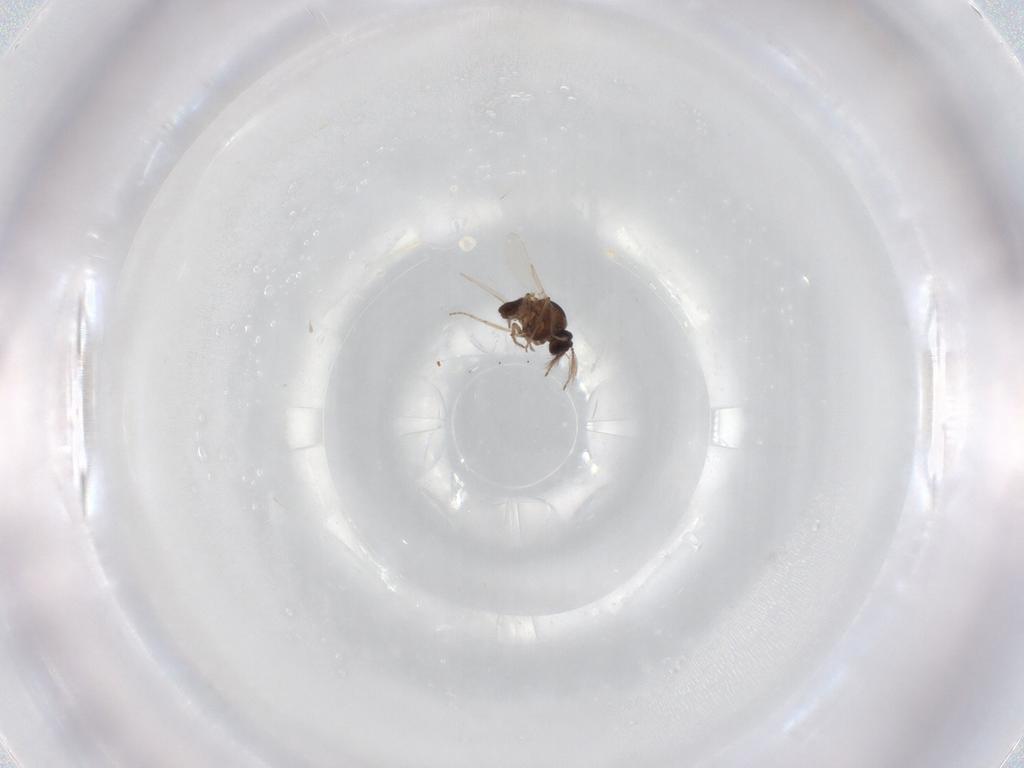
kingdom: Animalia
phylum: Arthropoda
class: Insecta
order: Diptera
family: Ceratopogonidae
